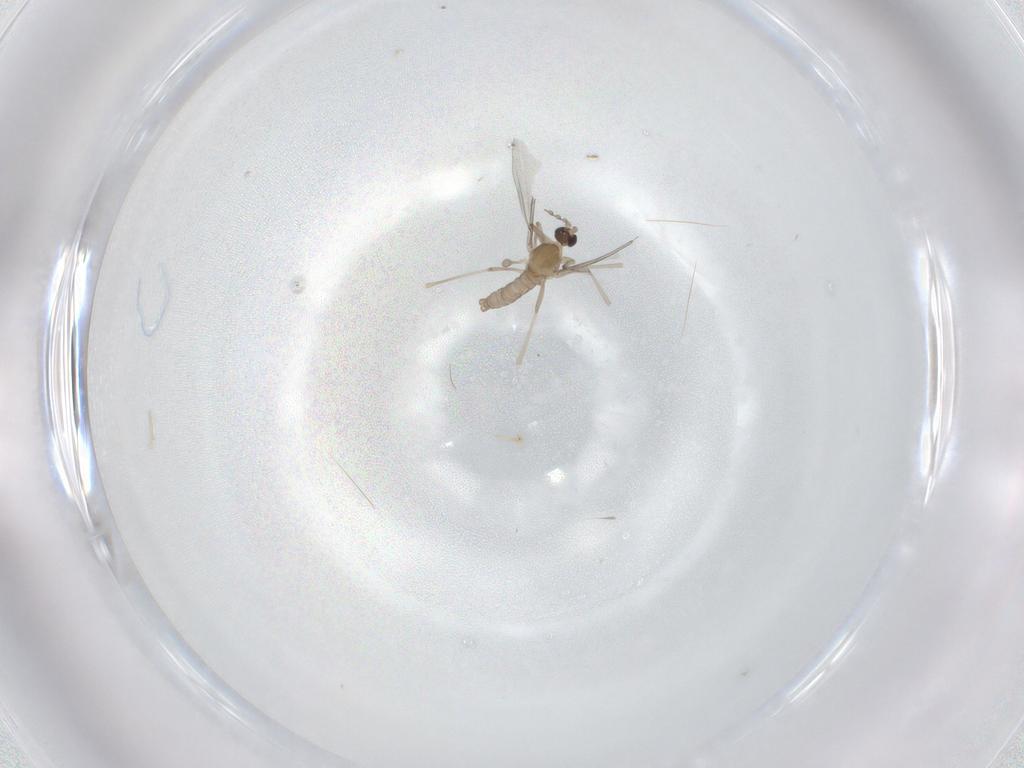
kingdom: Animalia
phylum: Arthropoda
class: Insecta
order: Diptera
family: Cecidomyiidae
